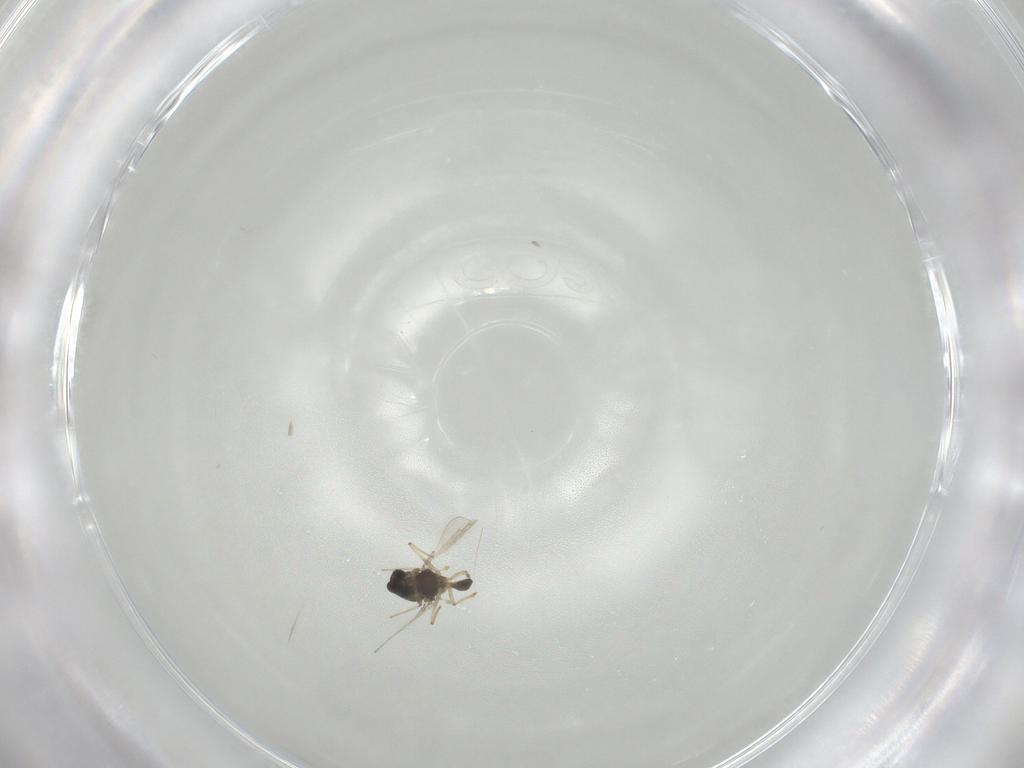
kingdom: Animalia
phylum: Arthropoda
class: Insecta
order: Diptera
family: Chironomidae
